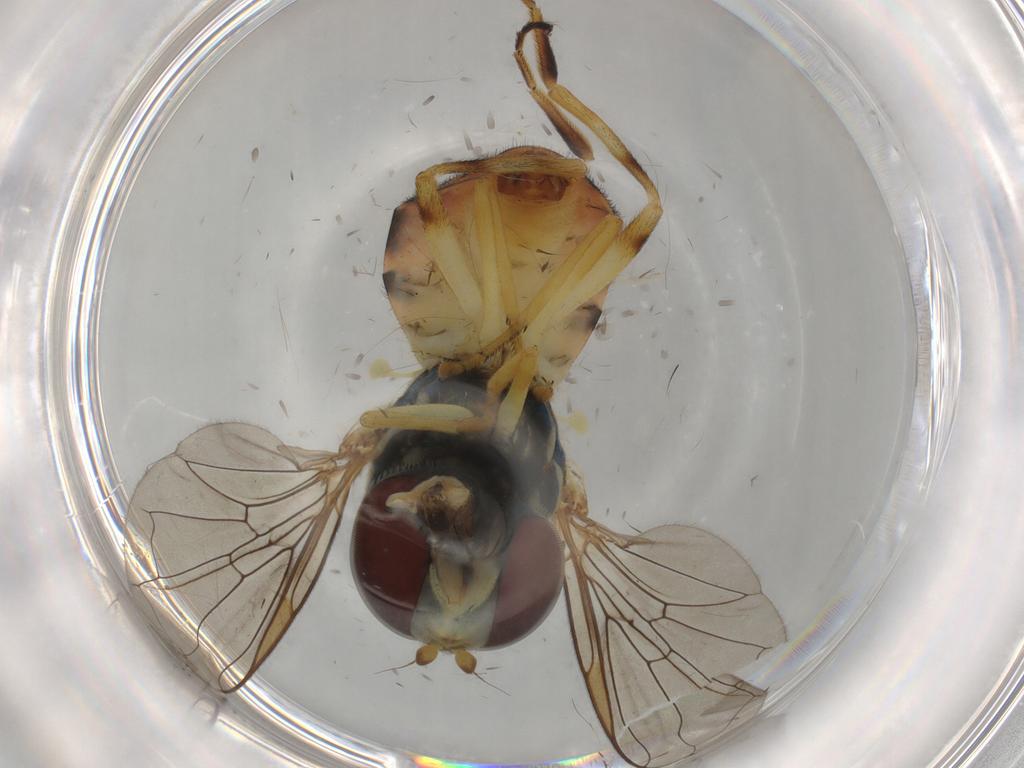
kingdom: Animalia
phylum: Arthropoda
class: Insecta
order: Diptera
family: Syrphidae
